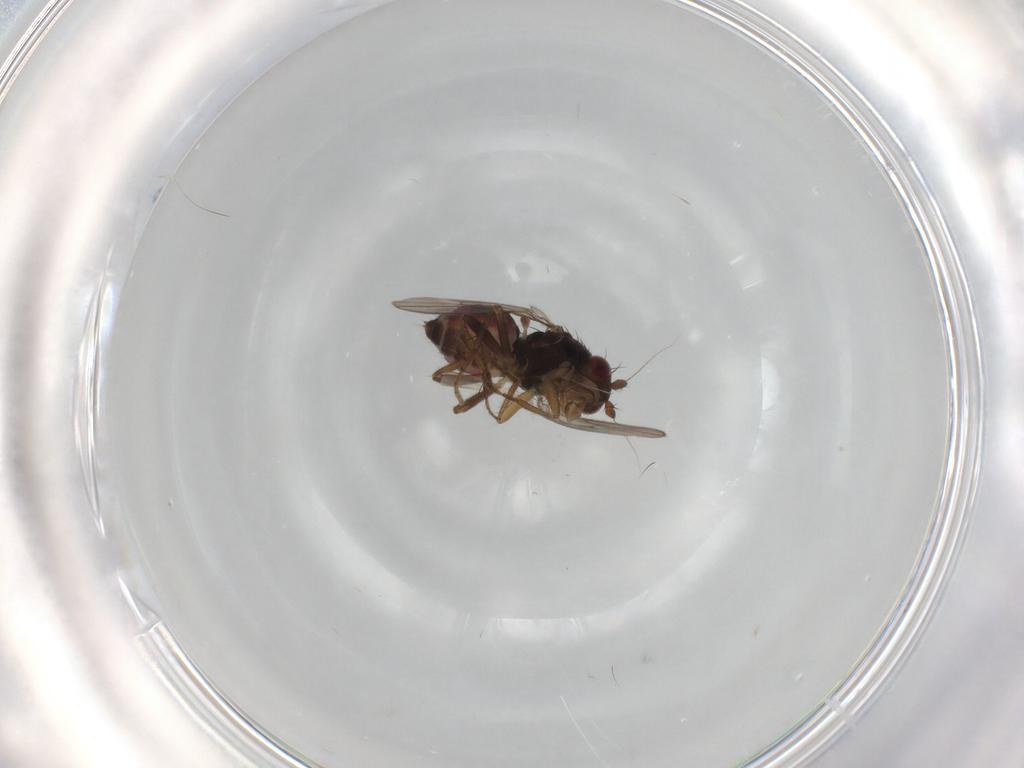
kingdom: Animalia
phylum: Arthropoda
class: Insecta
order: Diptera
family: Sphaeroceridae
